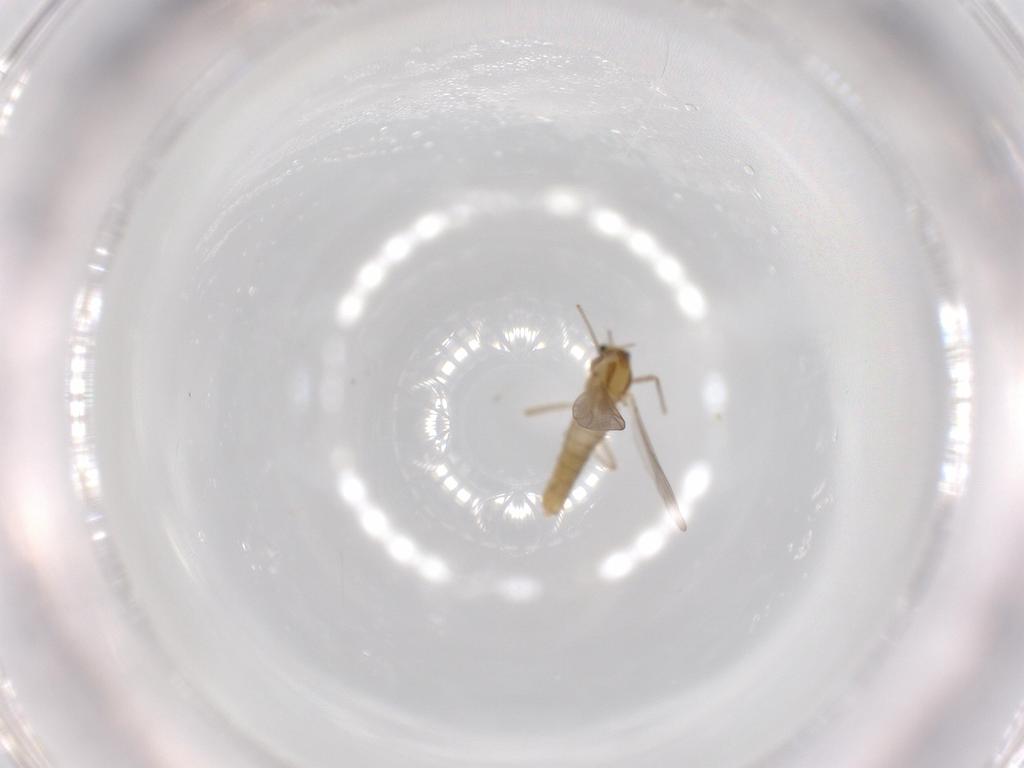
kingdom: Animalia
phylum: Arthropoda
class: Insecta
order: Diptera
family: Chironomidae
